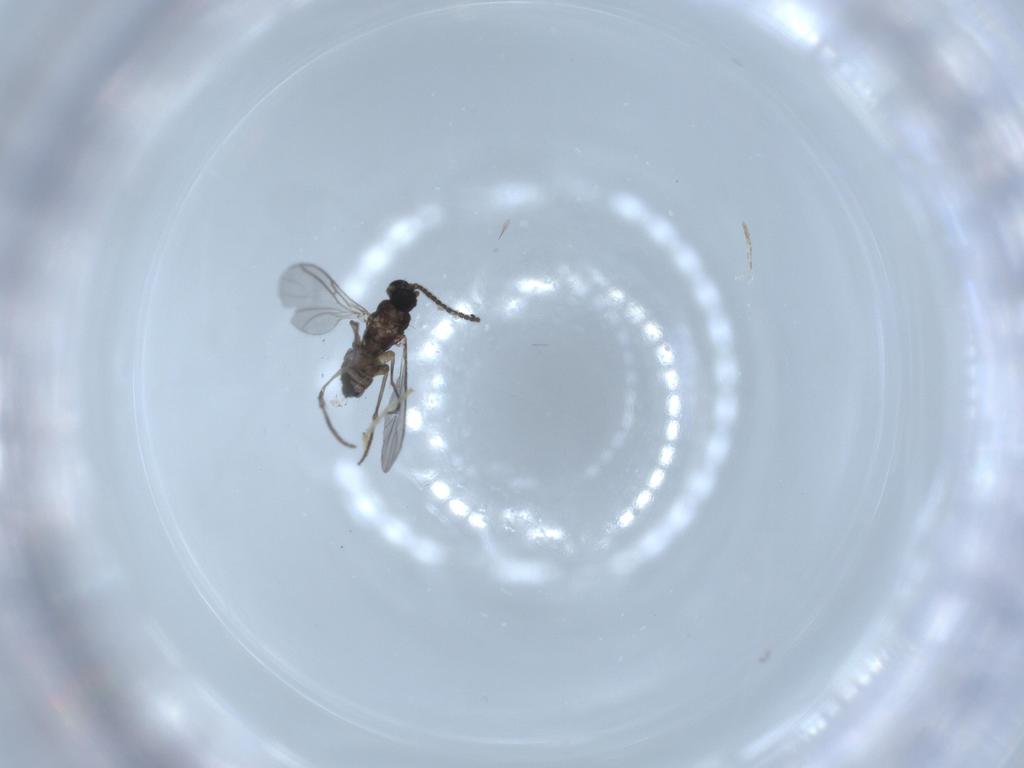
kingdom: Animalia
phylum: Arthropoda
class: Insecta
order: Diptera
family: Sciaridae
